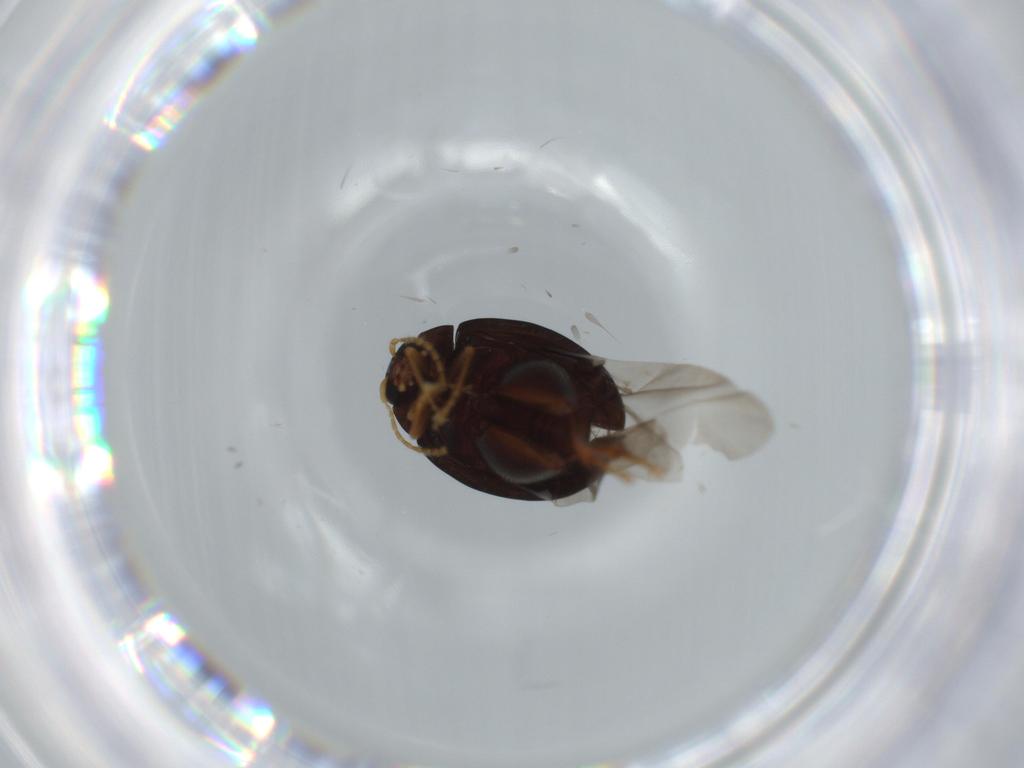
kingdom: Animalia
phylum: Arthropoda
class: Insecta
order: Coleoptera
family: Chrysomelidae
